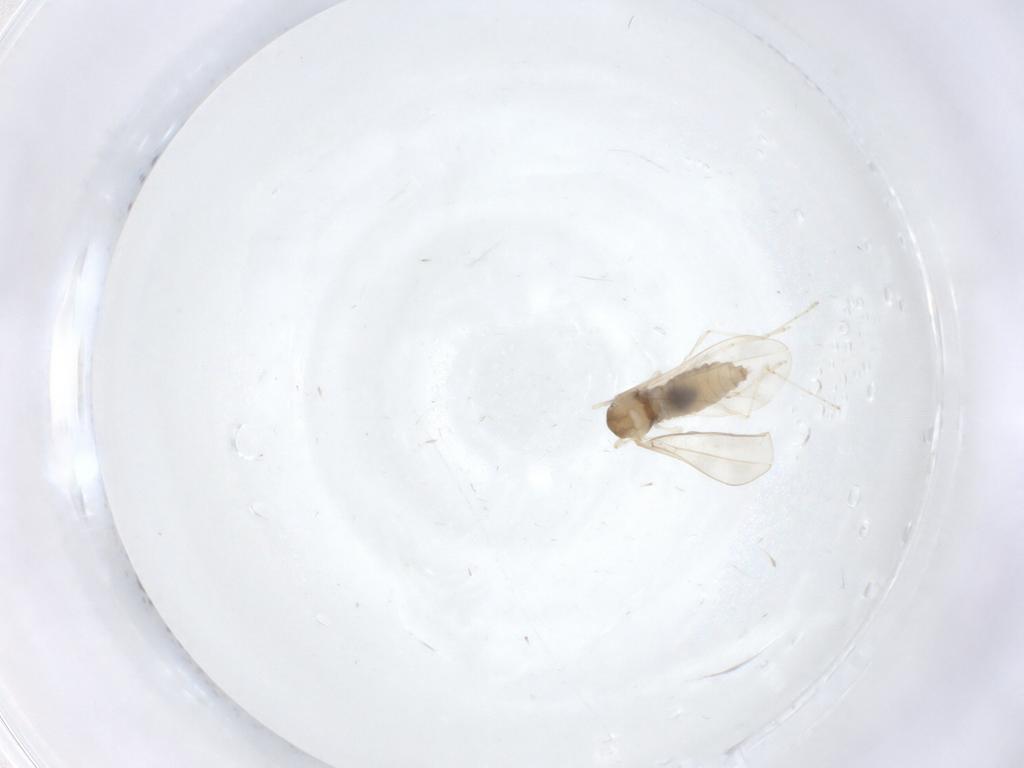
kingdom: Animalia
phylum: Arthropoda
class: Insecta
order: Diptera
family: Cecidomyiidae
